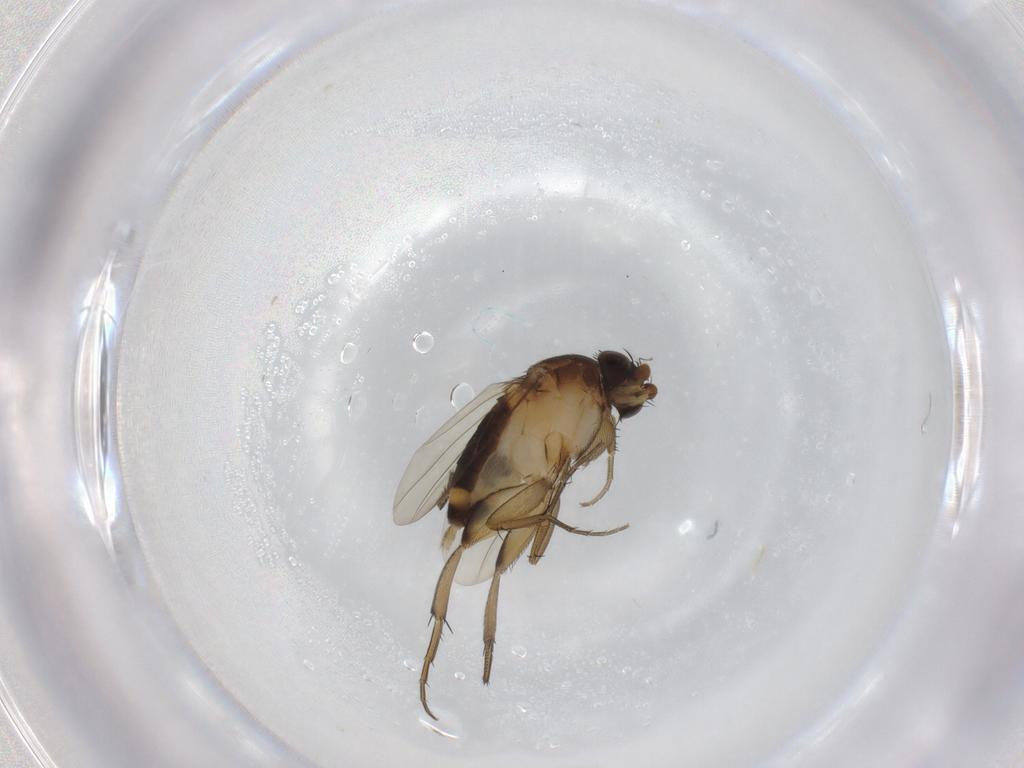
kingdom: Animalia
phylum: Arthropoda
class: Insecta
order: Diptera
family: Phoridae
